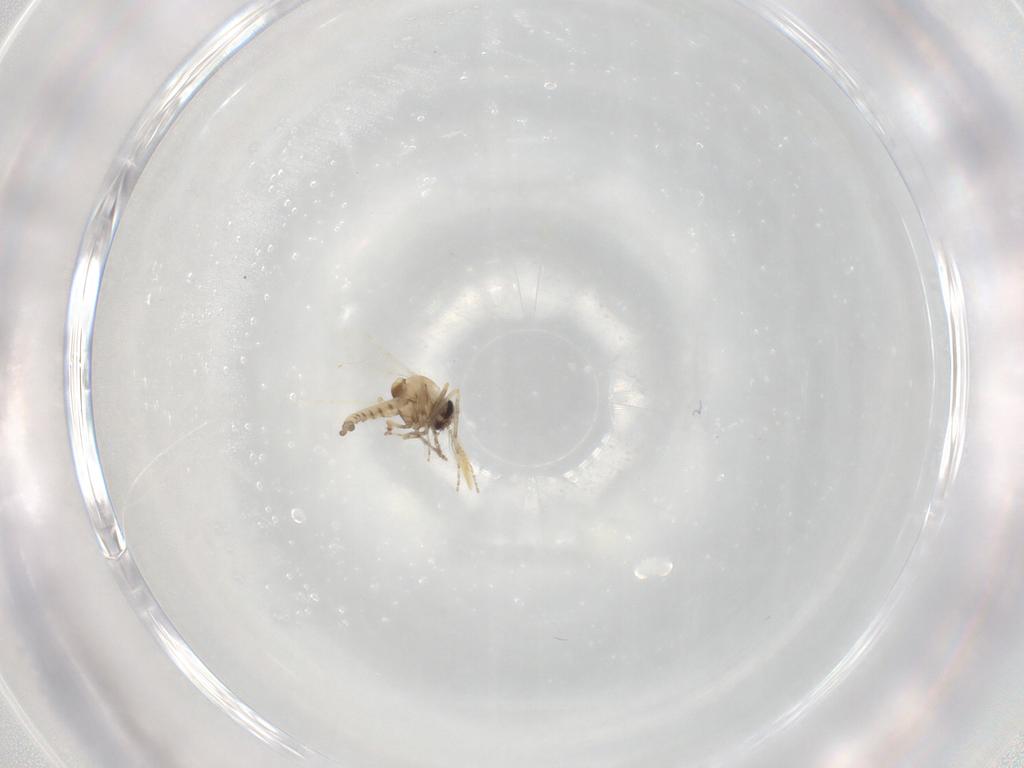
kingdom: Animalia
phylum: Arthropoda
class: Insecta
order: Diptera
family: Ceratopogonidae
